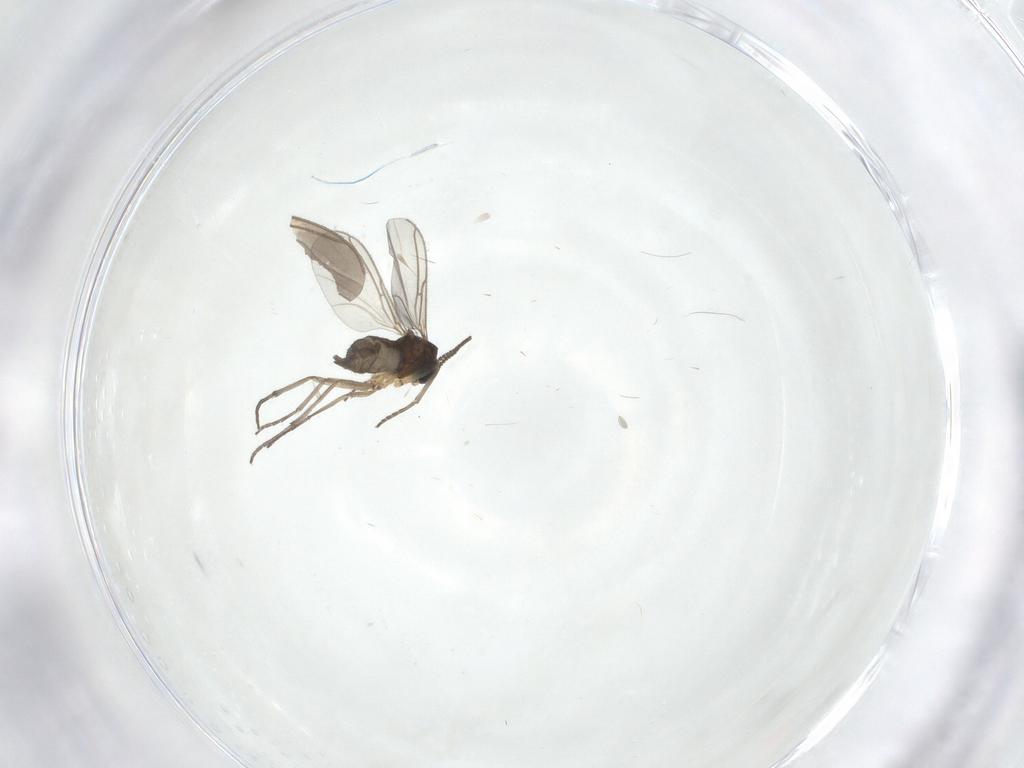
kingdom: Animalia
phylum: Arthropoda
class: Insecta
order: Diptera
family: Sciaridae
